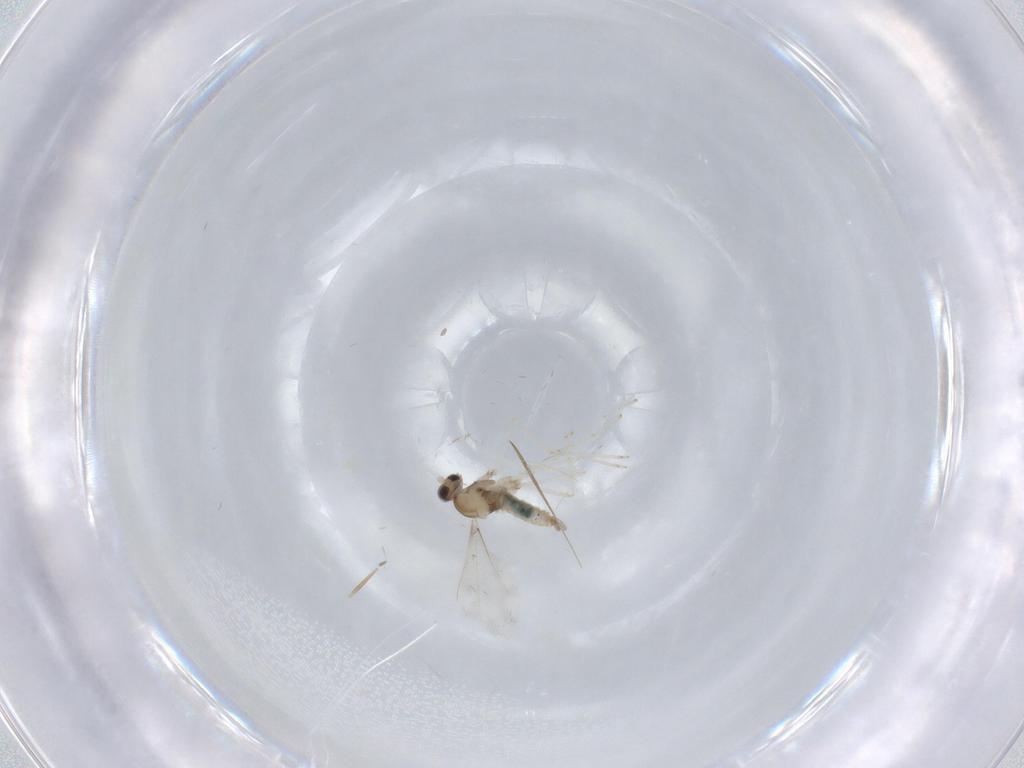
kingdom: Animalia
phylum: Arthropoda
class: Insecta
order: Diptera
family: Cecidomyiidae
